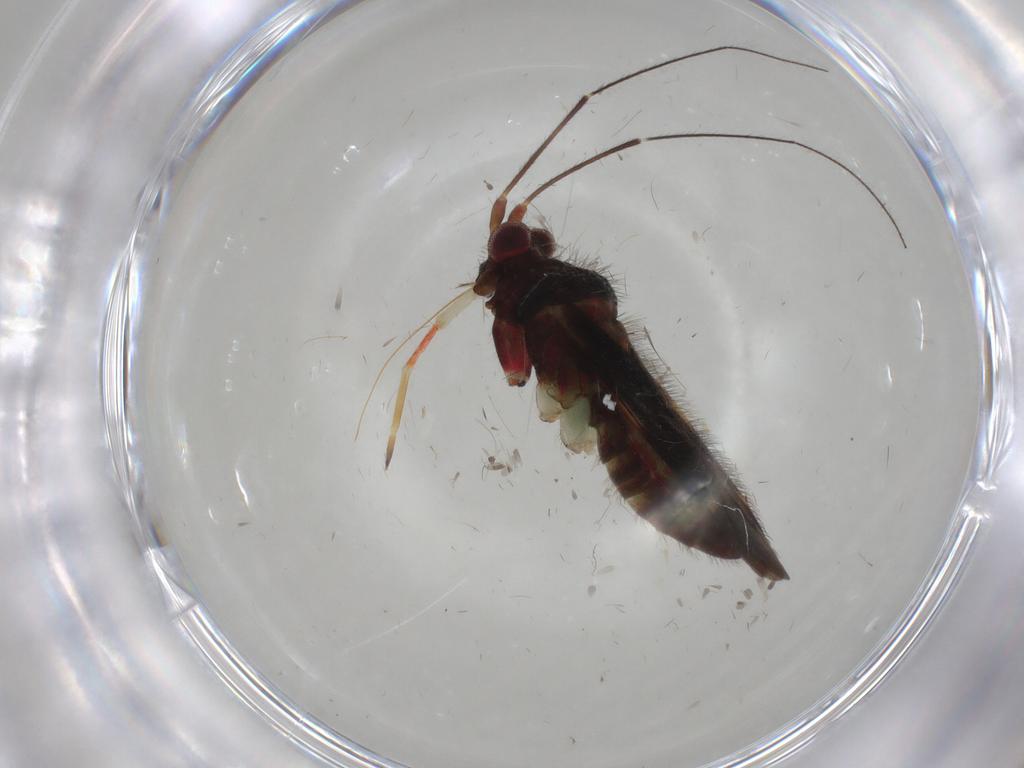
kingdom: Animalia
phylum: Arthropoda
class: Insecta
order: Hemiptera
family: Miridae
